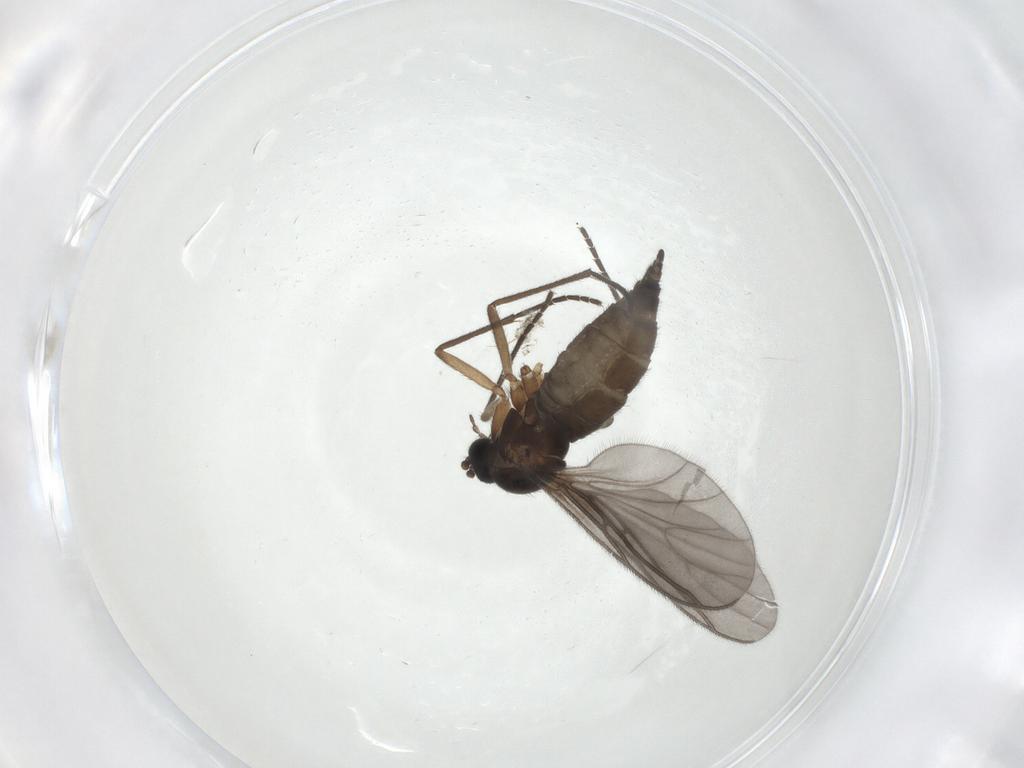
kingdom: Animalia
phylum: Arthropoda
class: Insecta
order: Diptera
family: Sciaridae
